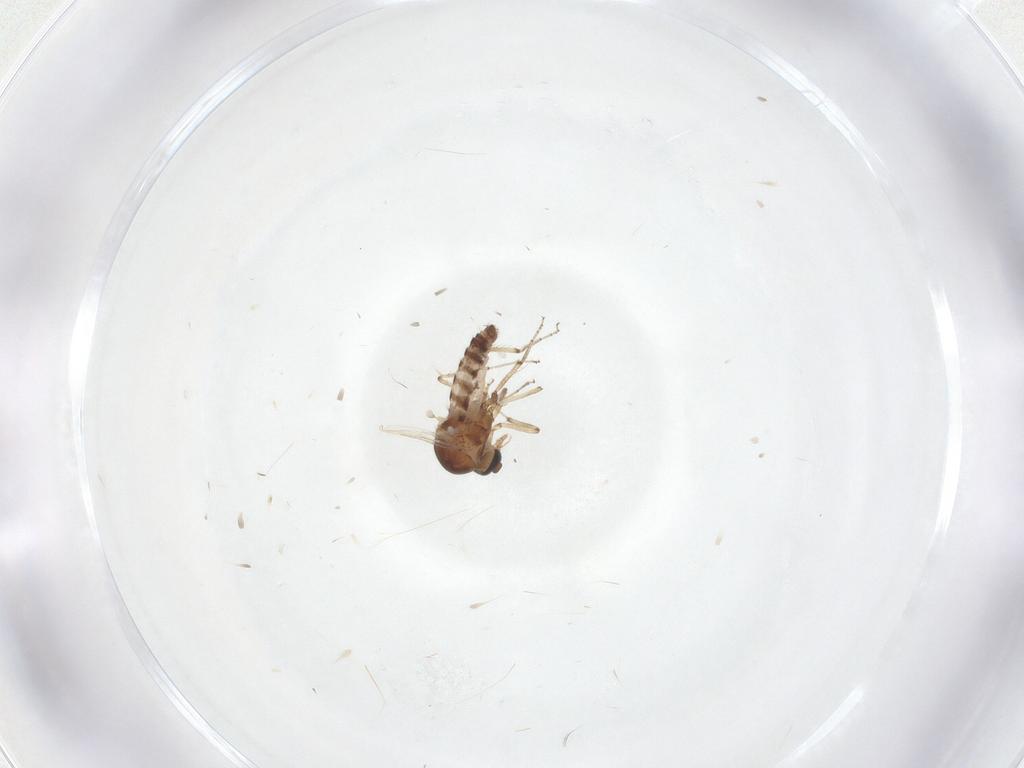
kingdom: Animalia
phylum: Arthropoda
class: Insecta
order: Diptera
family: Ceratopogonidae
